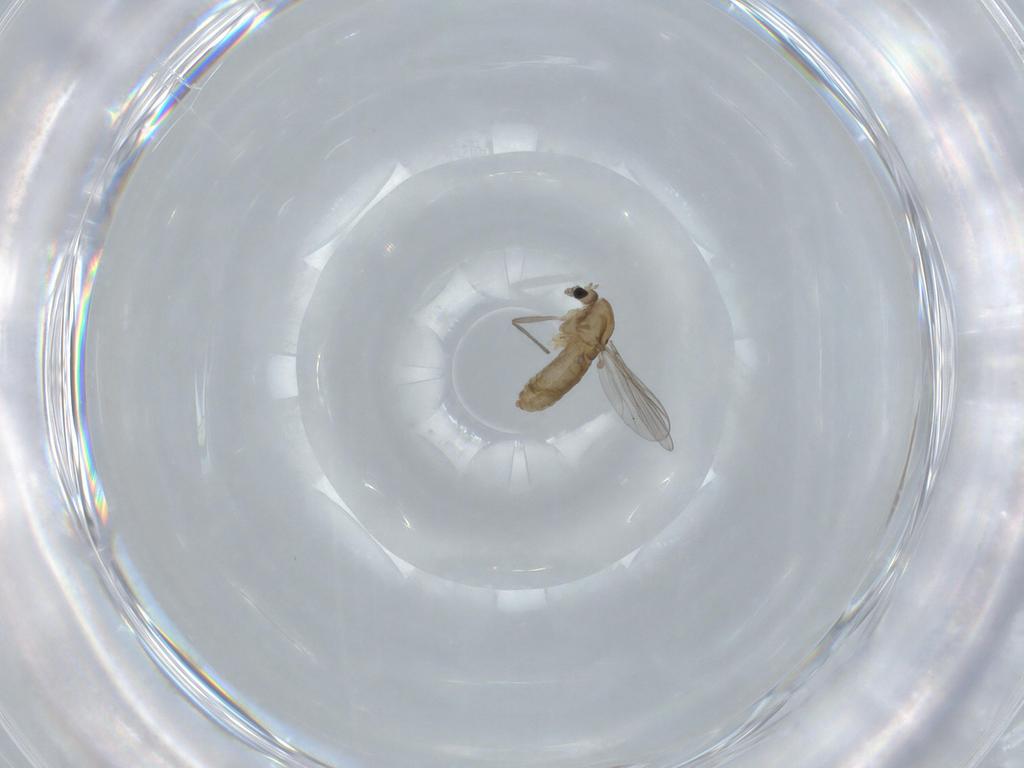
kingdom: Animalia
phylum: Arthropoda
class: Insecta
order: Diptera
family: Chironomidae
